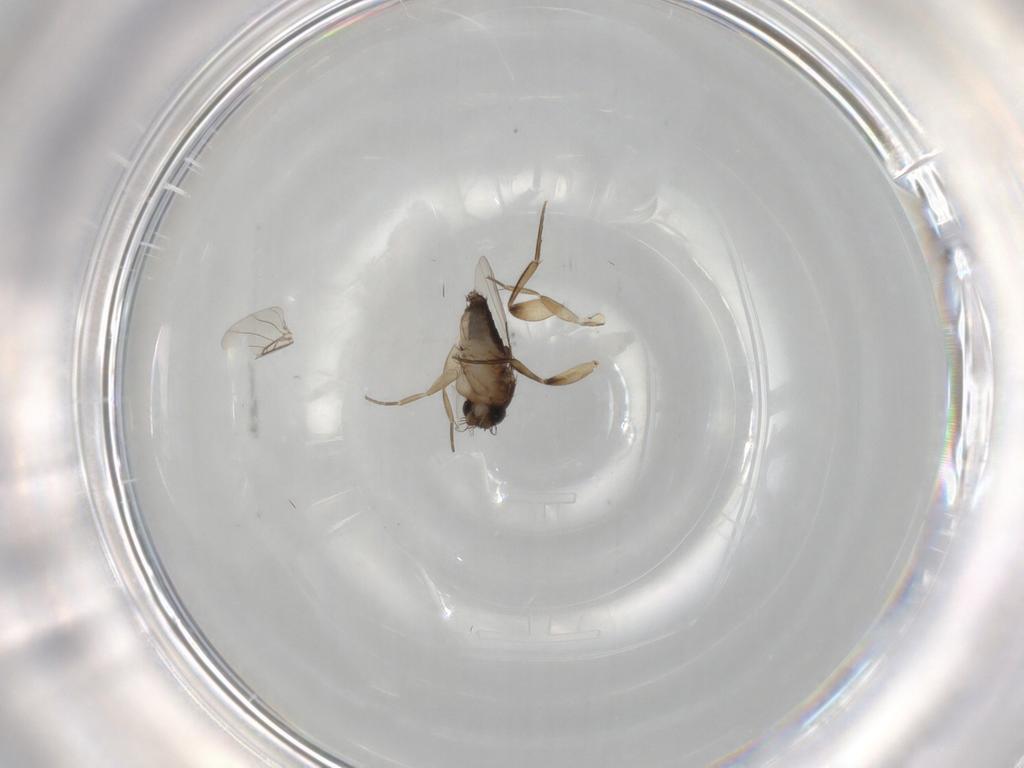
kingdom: Animalia
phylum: Arthropoda
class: Insecta
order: Diptera
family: Phoridae
